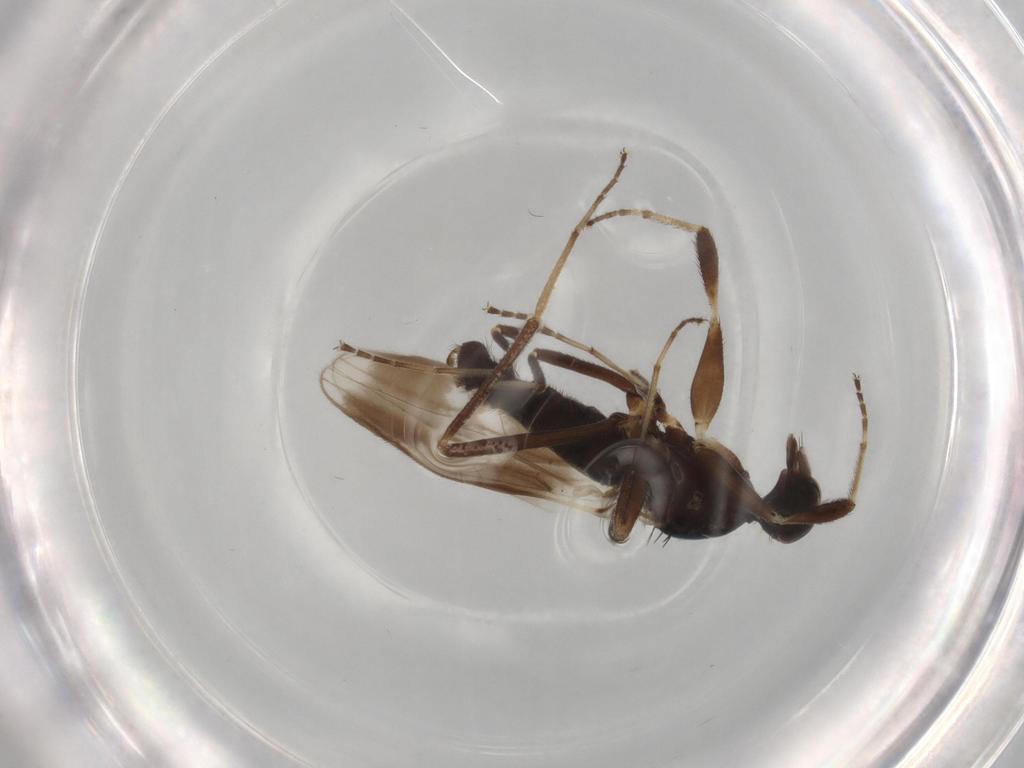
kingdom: Animalia
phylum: Arthropoda
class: Insecta
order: Diptera
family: Hybotidae
